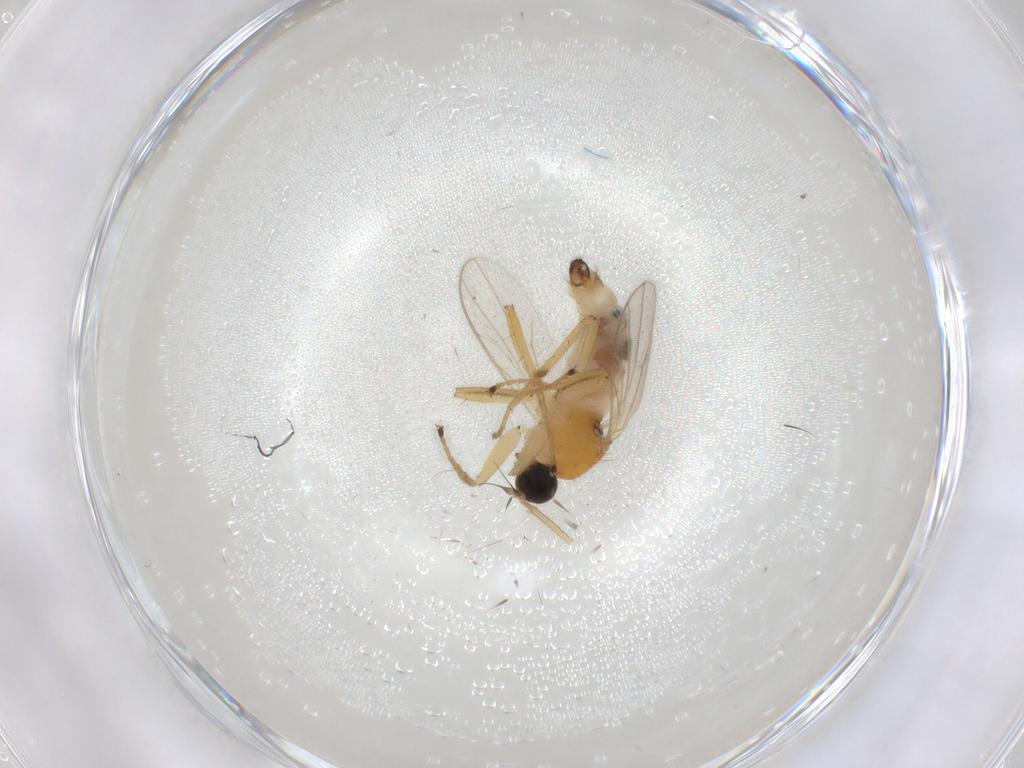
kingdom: Animalia
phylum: Arthropoda
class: Insecta
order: Diptera
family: Hybotidae
